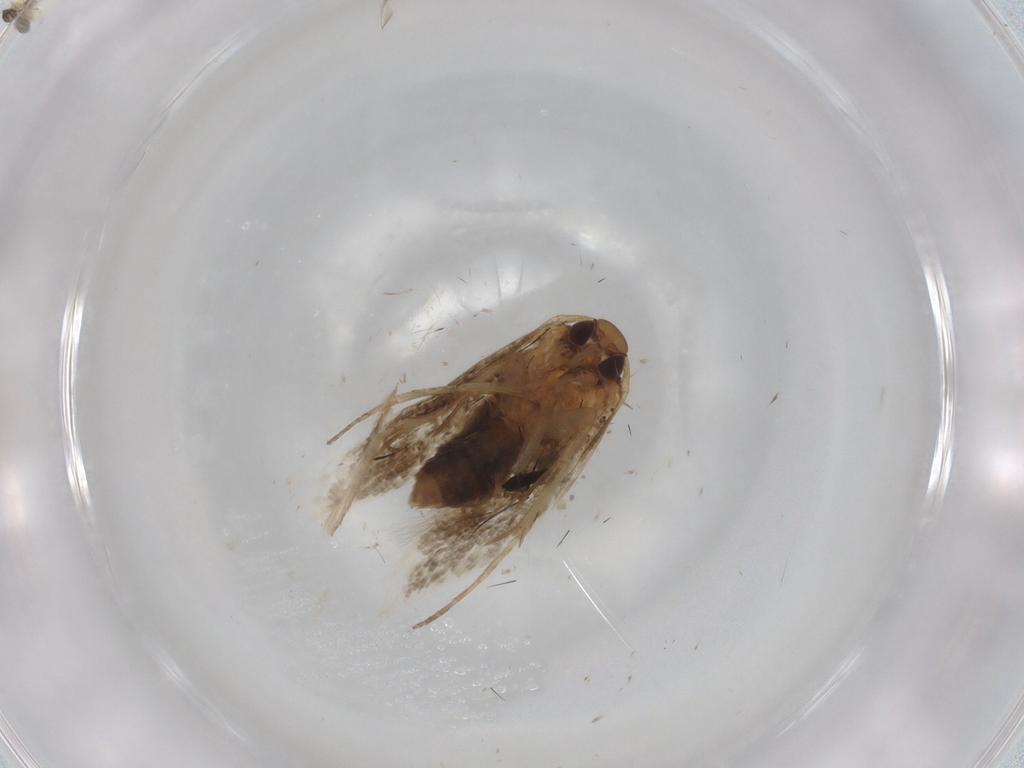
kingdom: Animalia
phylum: Arthropoda
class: Insecta
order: Lepidoptera
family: Cosmopterigidae
